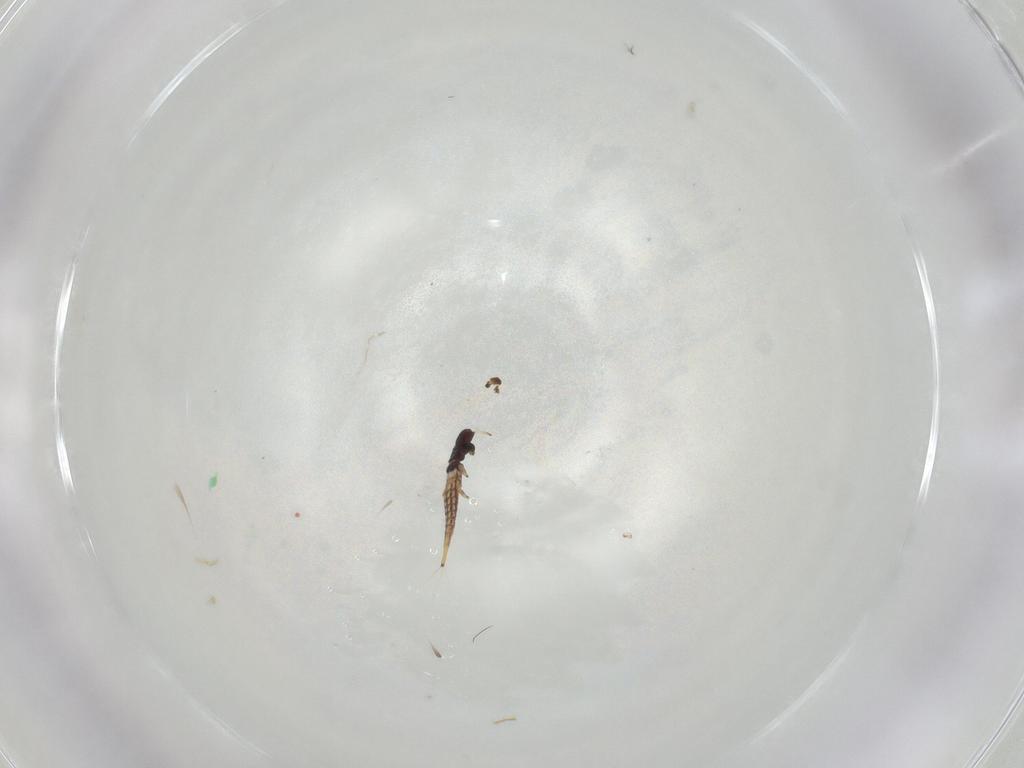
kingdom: Animalia
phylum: Arthropoda
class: Insecta
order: Thysanoptera
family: Phlaeothripidae
